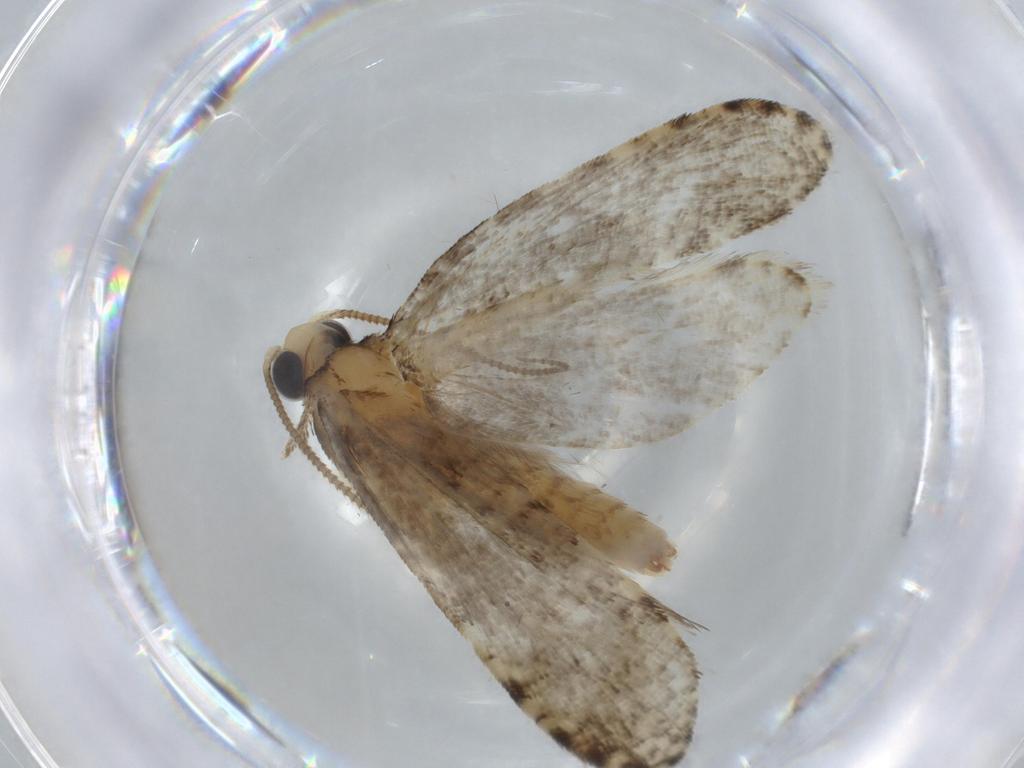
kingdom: Animalia
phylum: Arthropoda
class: Insecta
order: Lepidoptera
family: Tineidae
